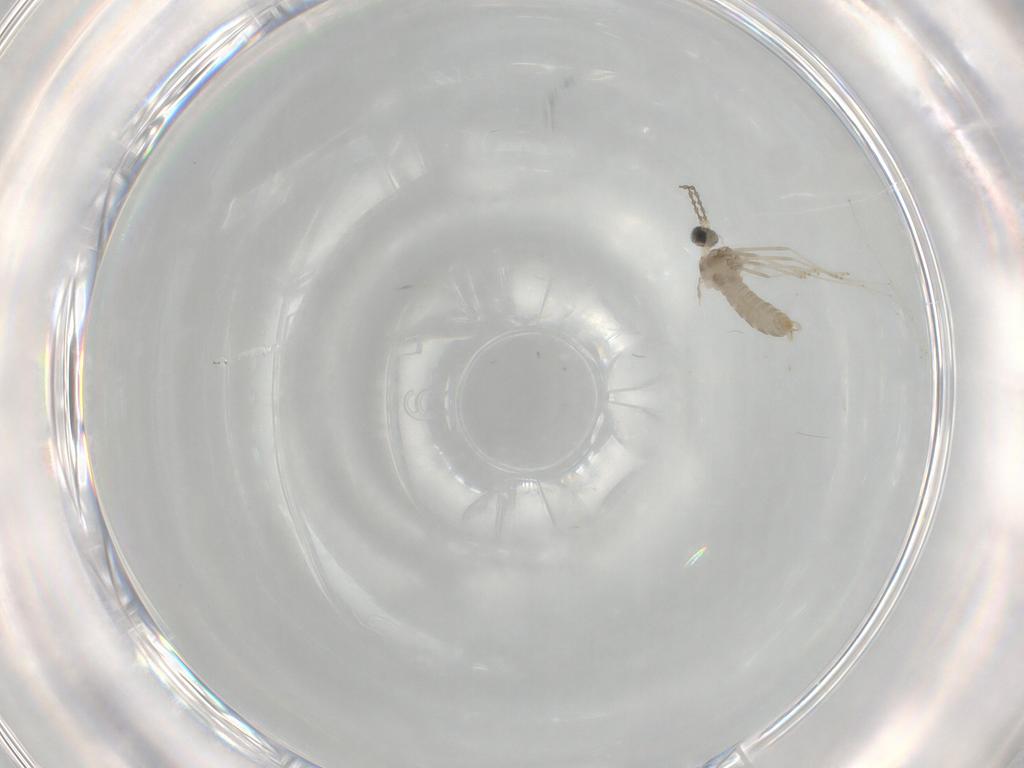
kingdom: Animalia
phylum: Arthropoda
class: Insecta
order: Diptera
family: Cecidomyiidae
